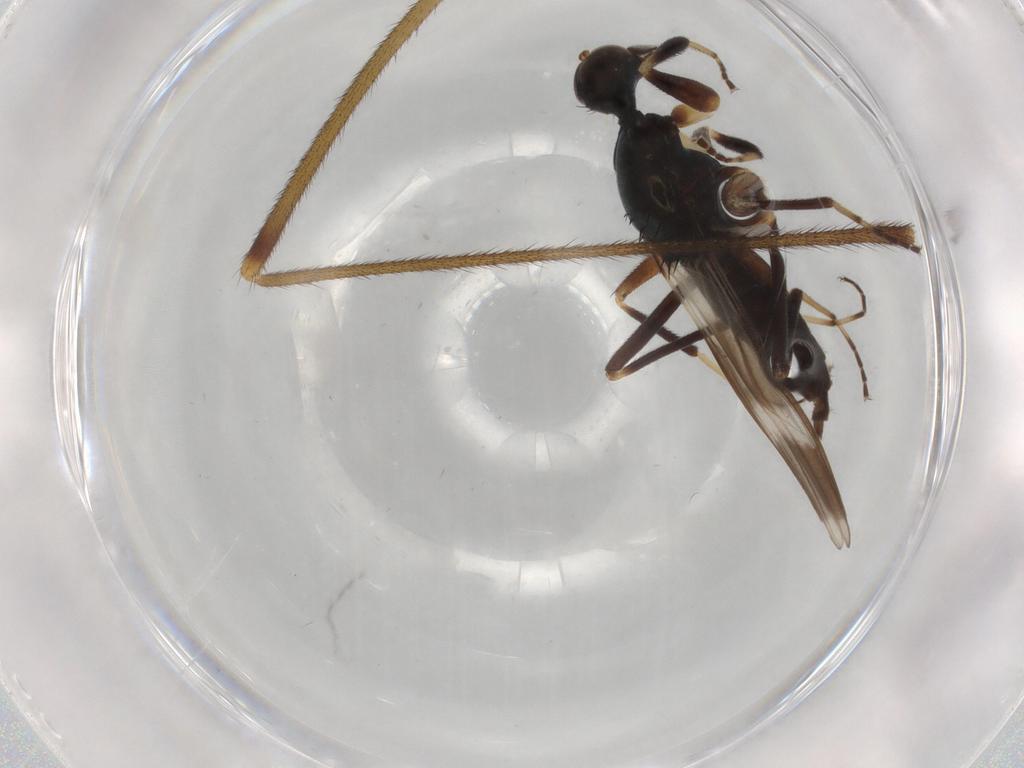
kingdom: Animalia
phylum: Arthropoda
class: Insecta
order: Diptera
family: Hybotidae
